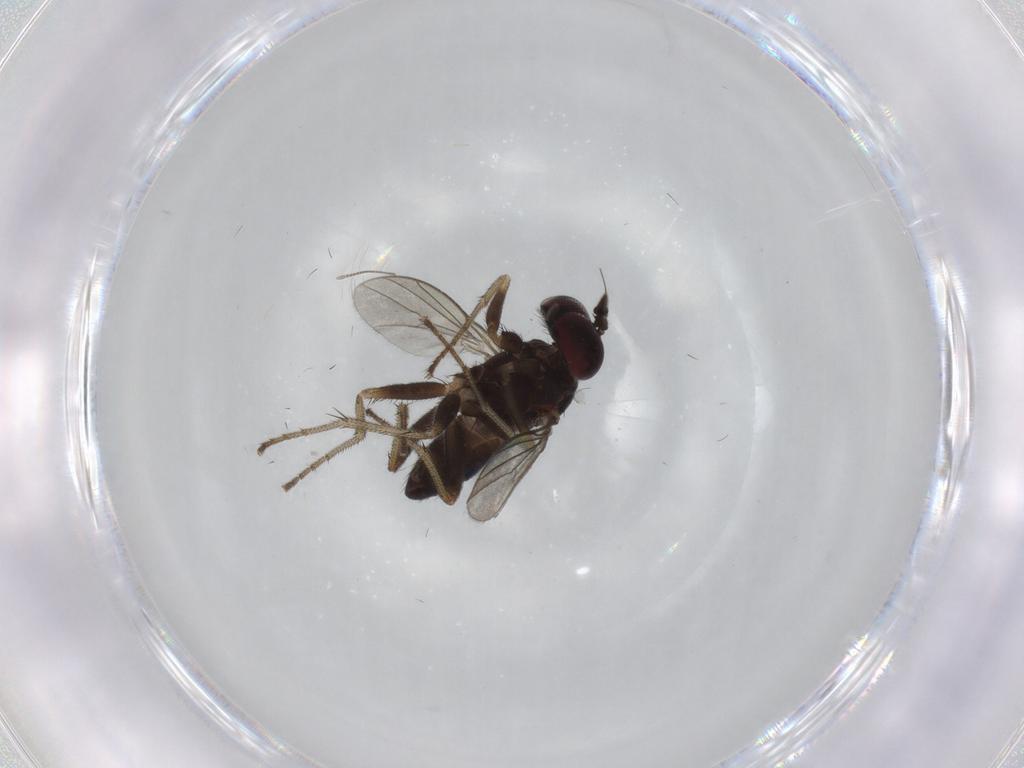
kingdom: Animalia
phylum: Arthropoda
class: Insecta
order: Diptera
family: Dolichopodidae
